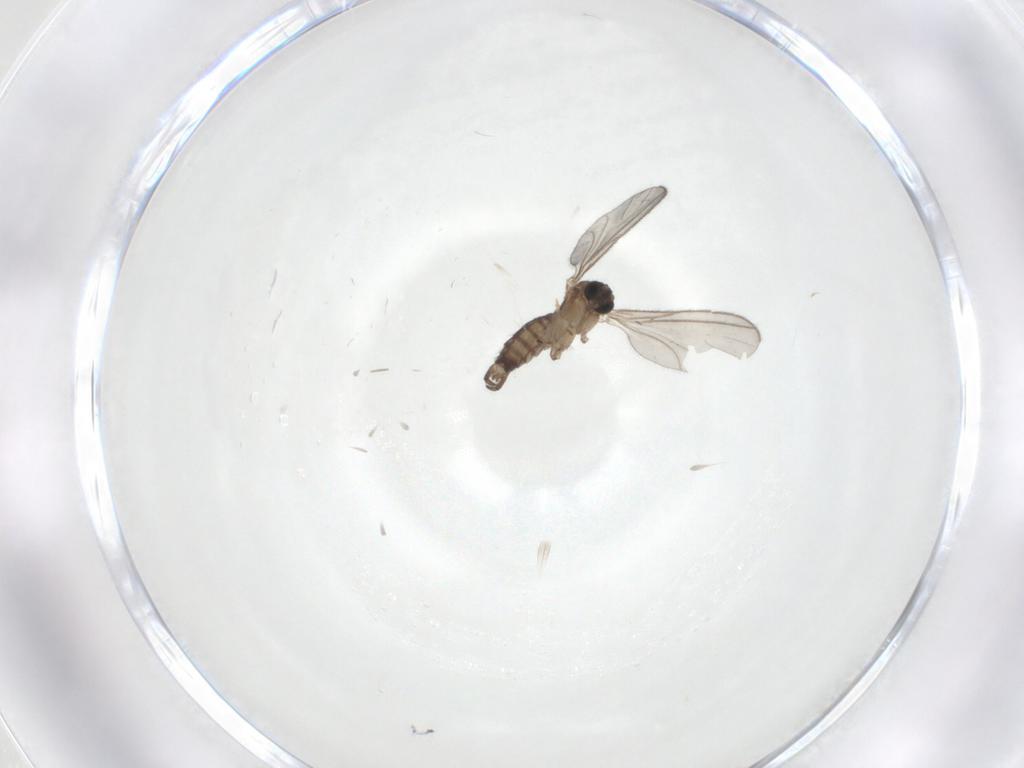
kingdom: Animalia
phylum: Arthropoda
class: Insecta
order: Diptera
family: Sciaridae
